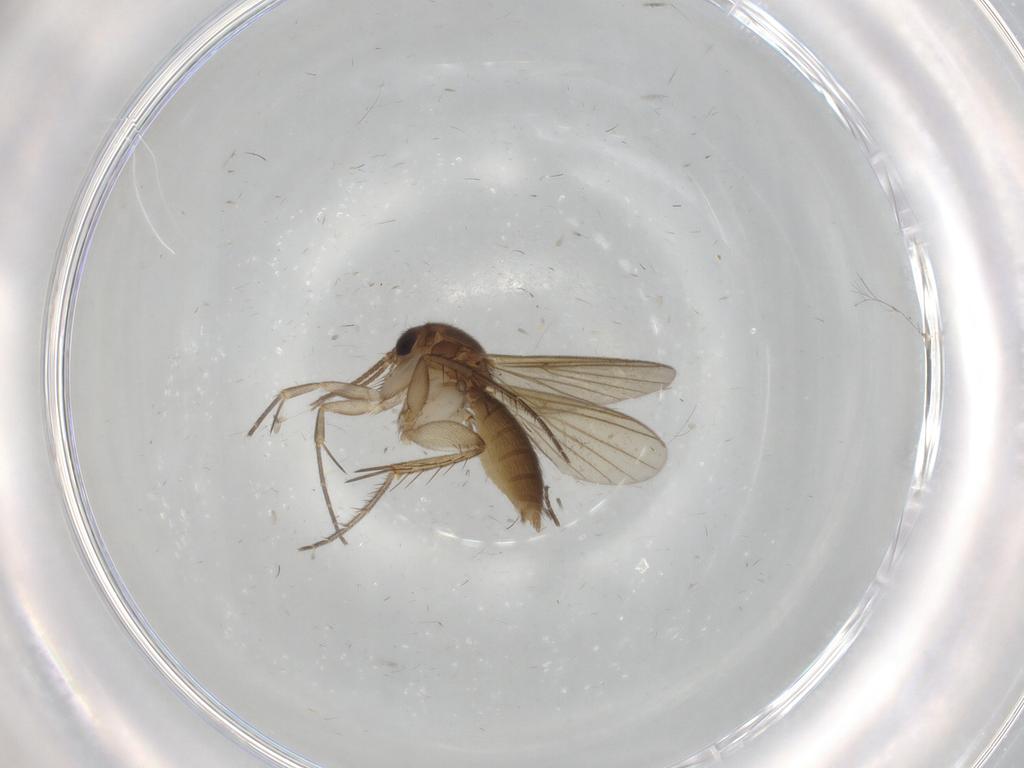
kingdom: Animalia
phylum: Arthropoda
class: Insecta
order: Diptera
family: Mycetophilidae
